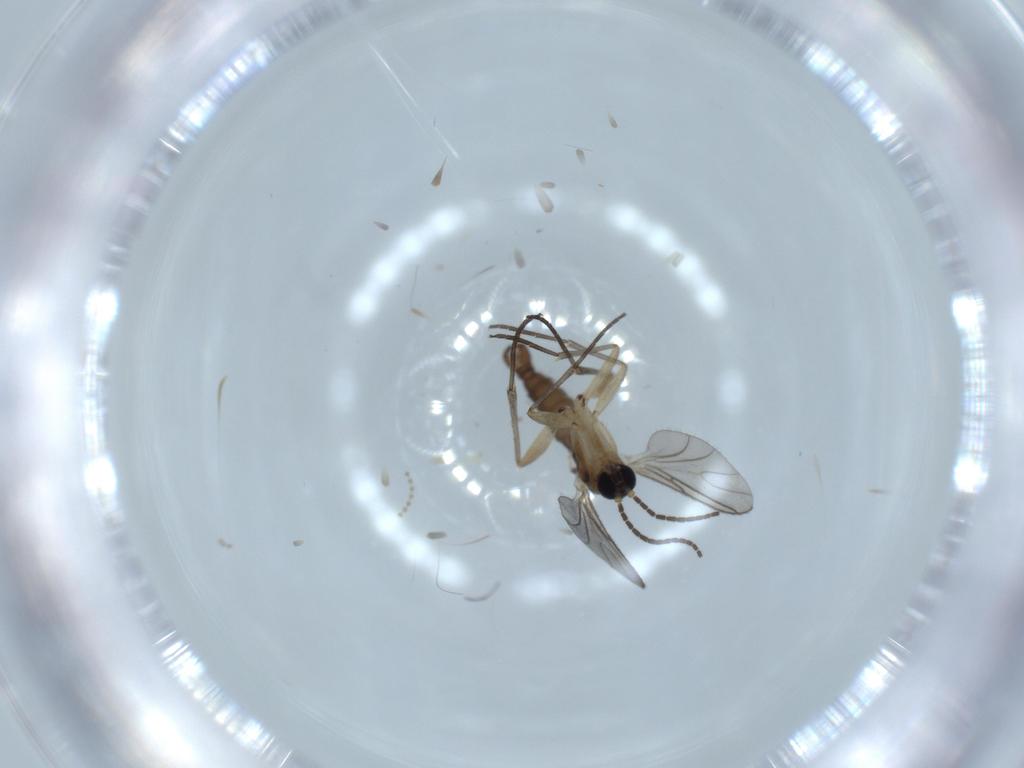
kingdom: Animalia
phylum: Arthropoda
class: Insecta
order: Diptera
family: Sciaridae
